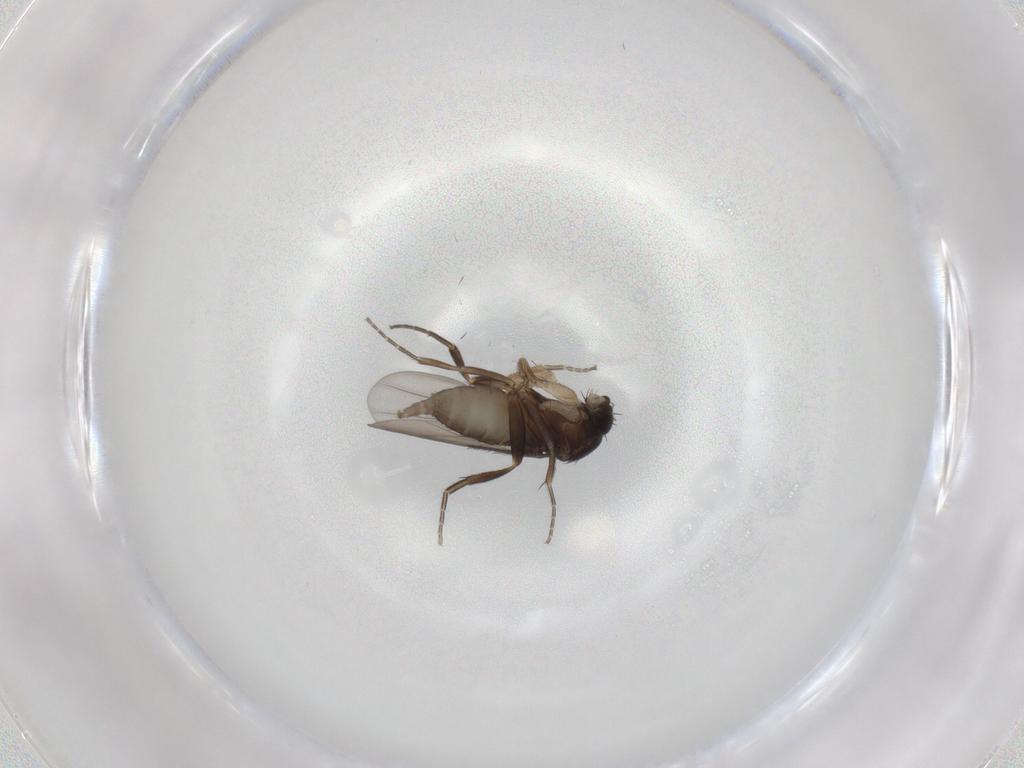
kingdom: Animalia
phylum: Arthropoda
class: Insecta
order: Diptera
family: Phoridae
